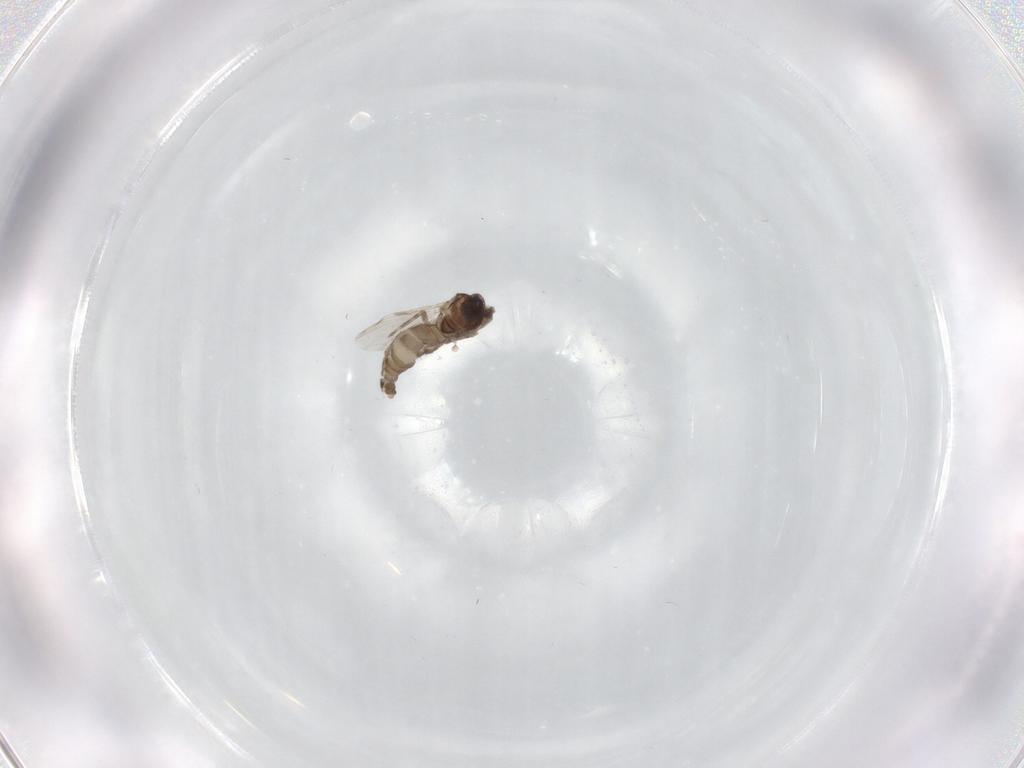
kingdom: Animalia
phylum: Arthropoda
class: Insecta
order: Diptera
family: Ceratopogonidae
